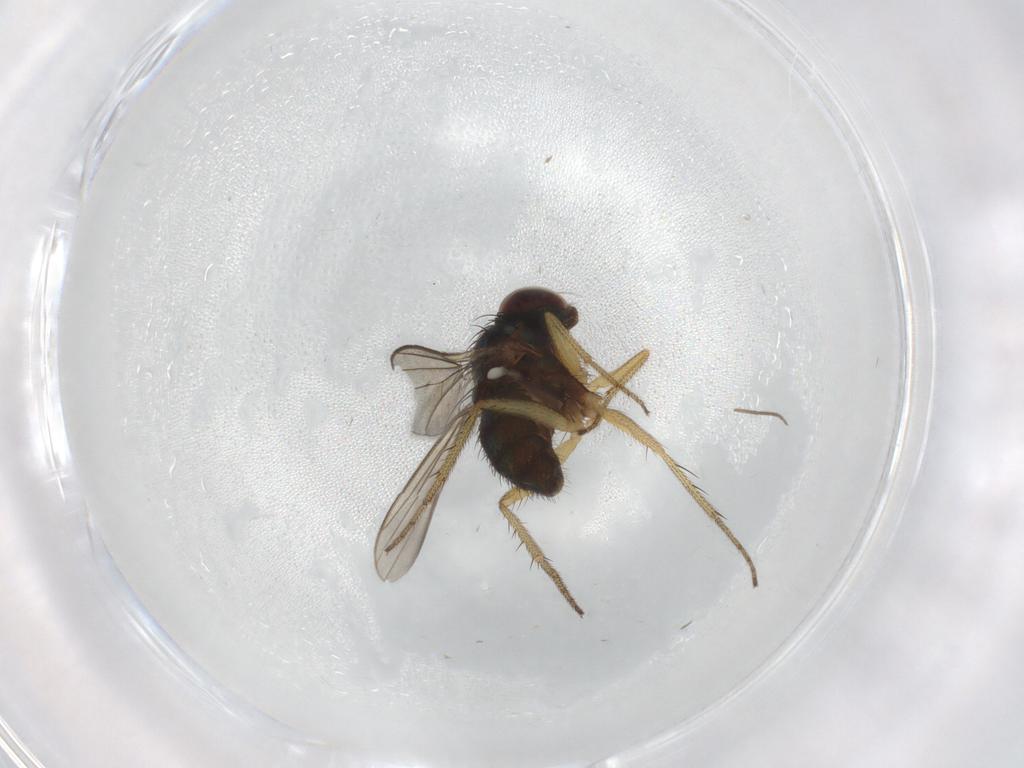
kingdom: Animalia
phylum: Arthropoda
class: Insecta
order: Diptera
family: Dolichopodidae
